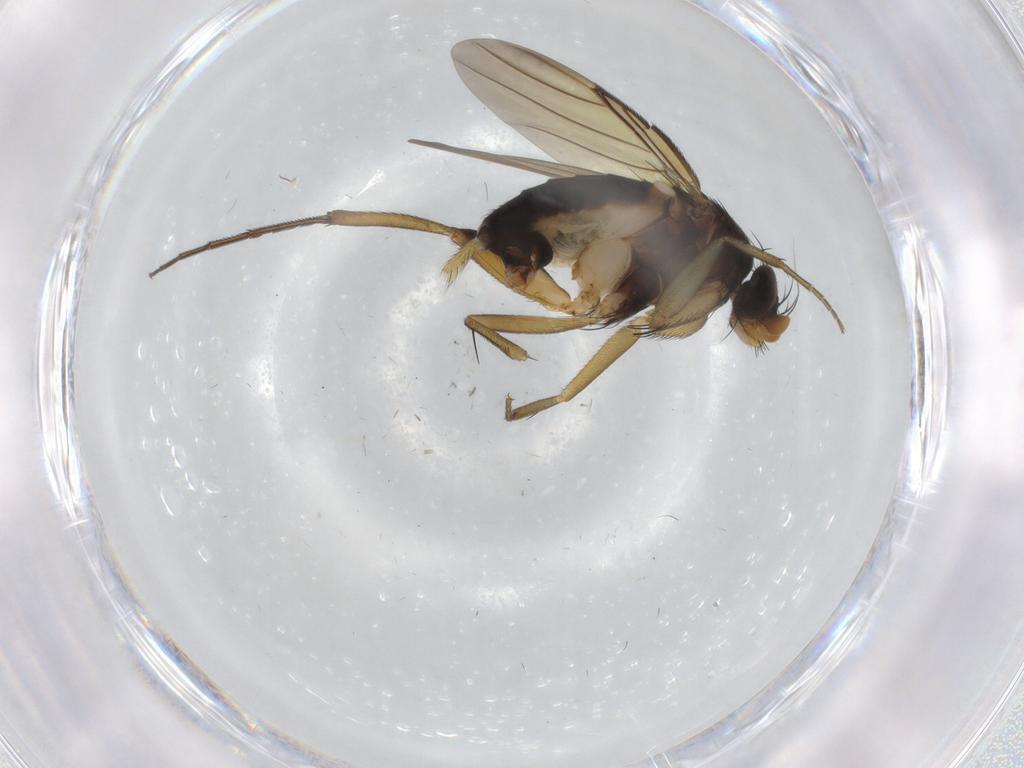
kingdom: Animalia
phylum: Arthropoda
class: Insecta
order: Diptera
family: Phoridae
